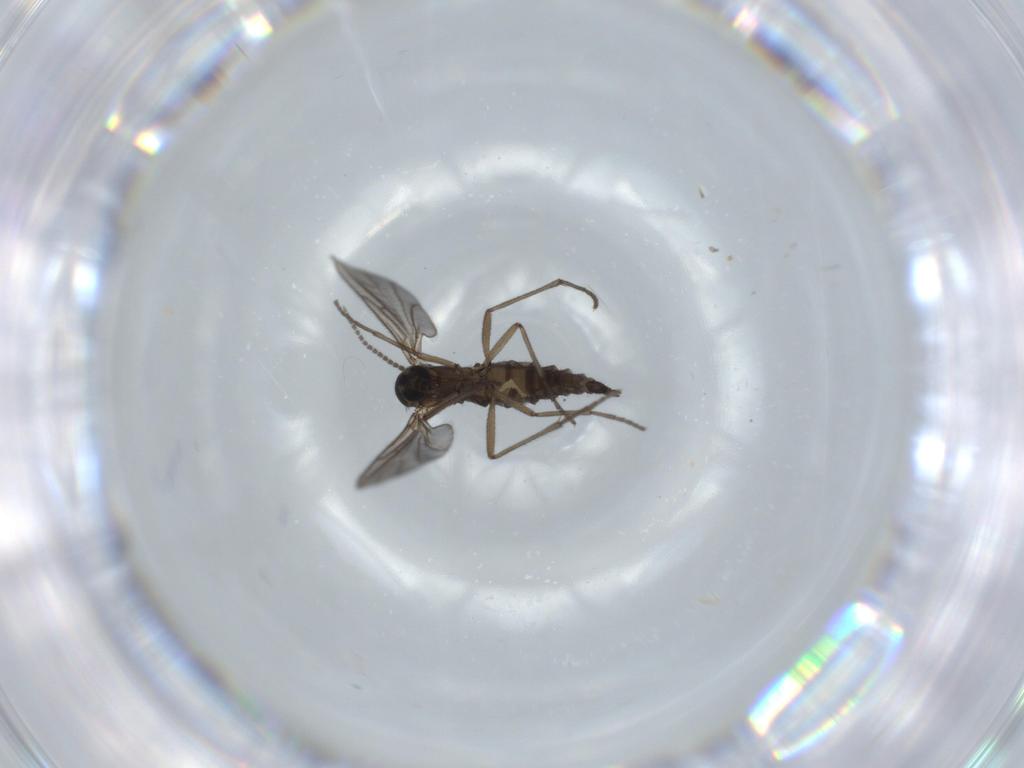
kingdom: Animalia
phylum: Arthropoda
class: Insecta
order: Diptera
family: Sciaridae
